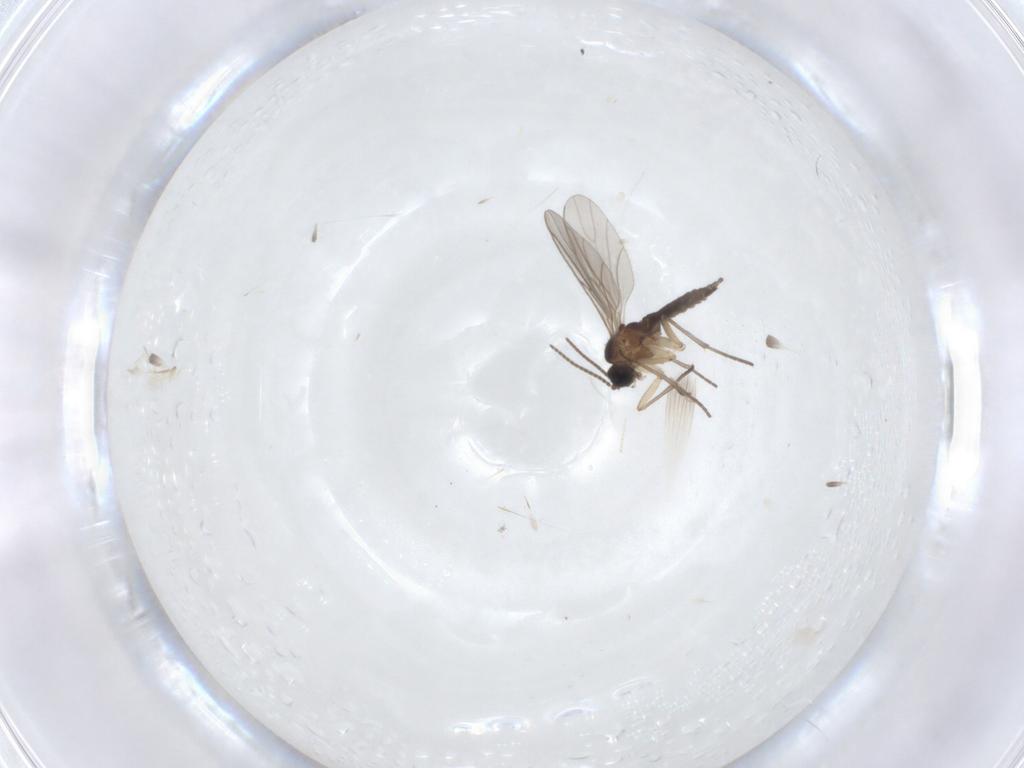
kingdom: Animalia
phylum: Arthropoda
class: Insecta
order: Diptera
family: Sciaridae
